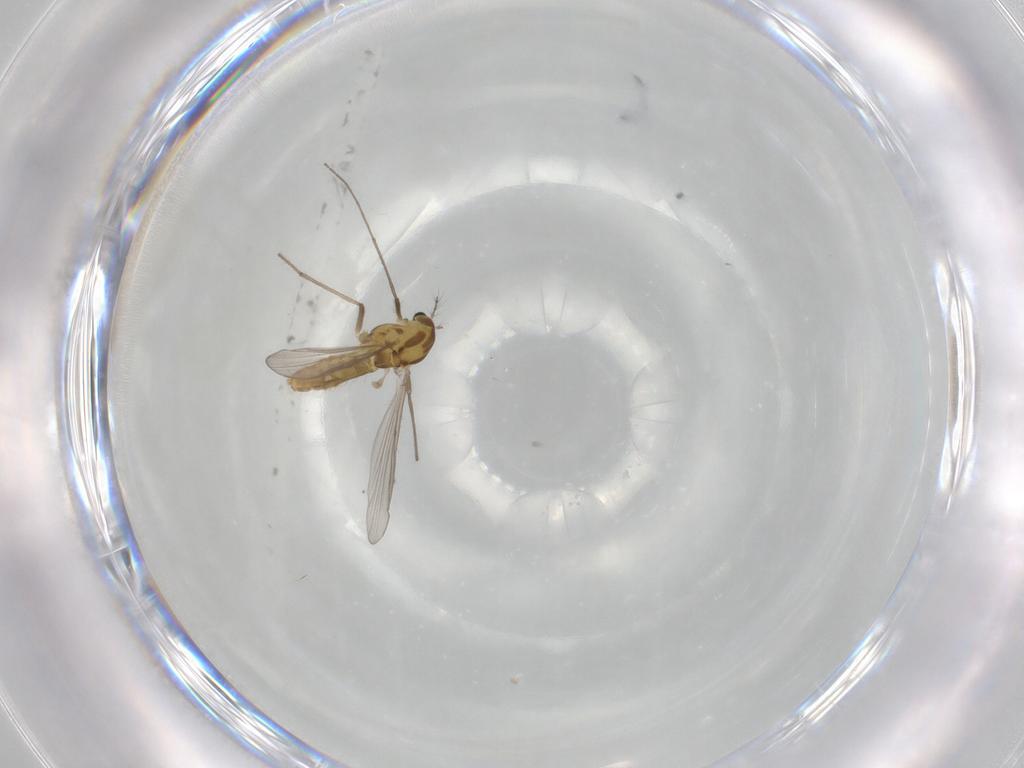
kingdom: Animalia
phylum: Arthropoda
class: Insecta
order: Diptera
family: Chironomidae
